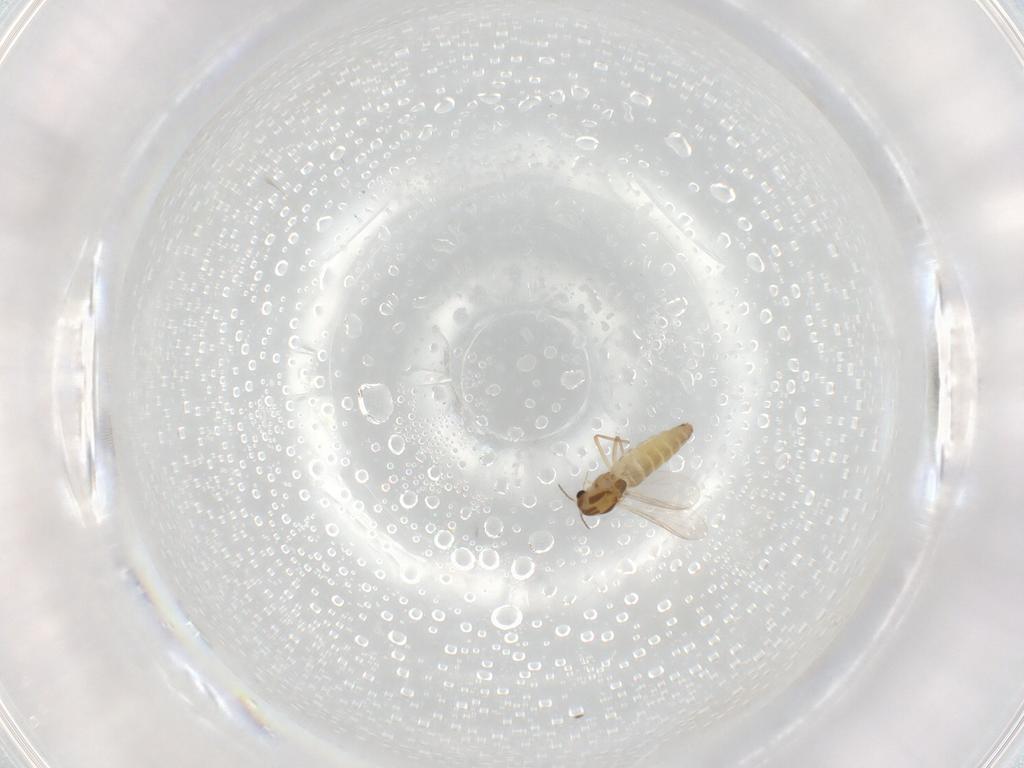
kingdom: Animalia
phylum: Arthropoda
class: Insecta
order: Diptera
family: Chironomidae
